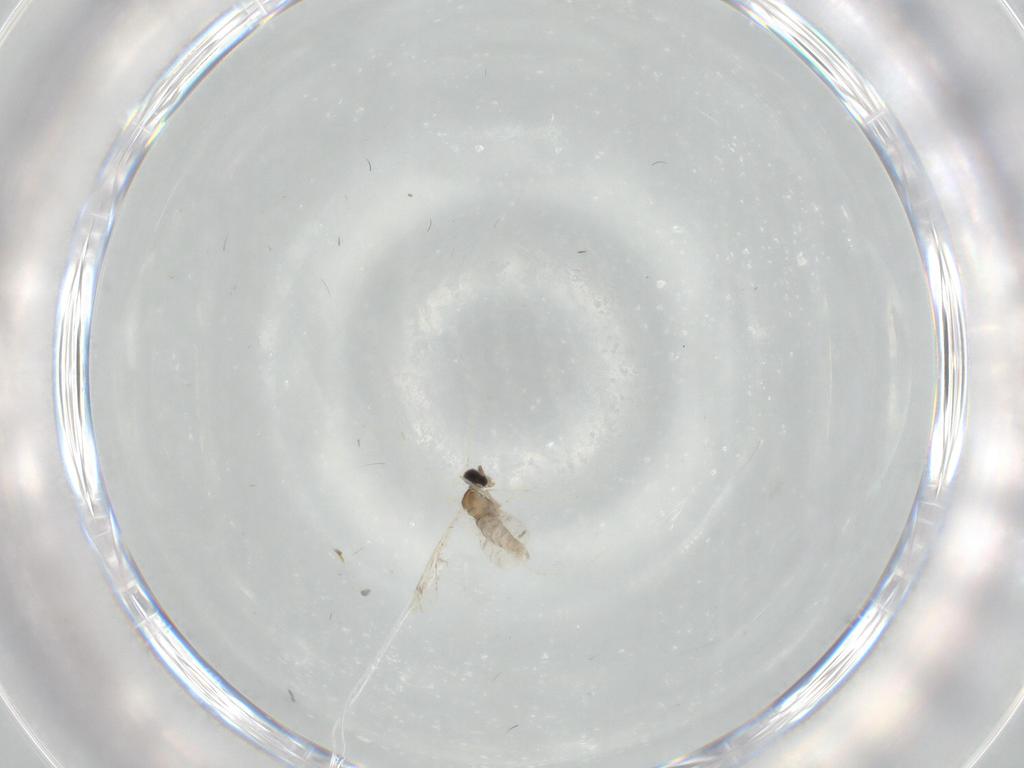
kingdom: Animalia
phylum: Arthropoda
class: Insecta
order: Diptera
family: Cecidomyiidae
